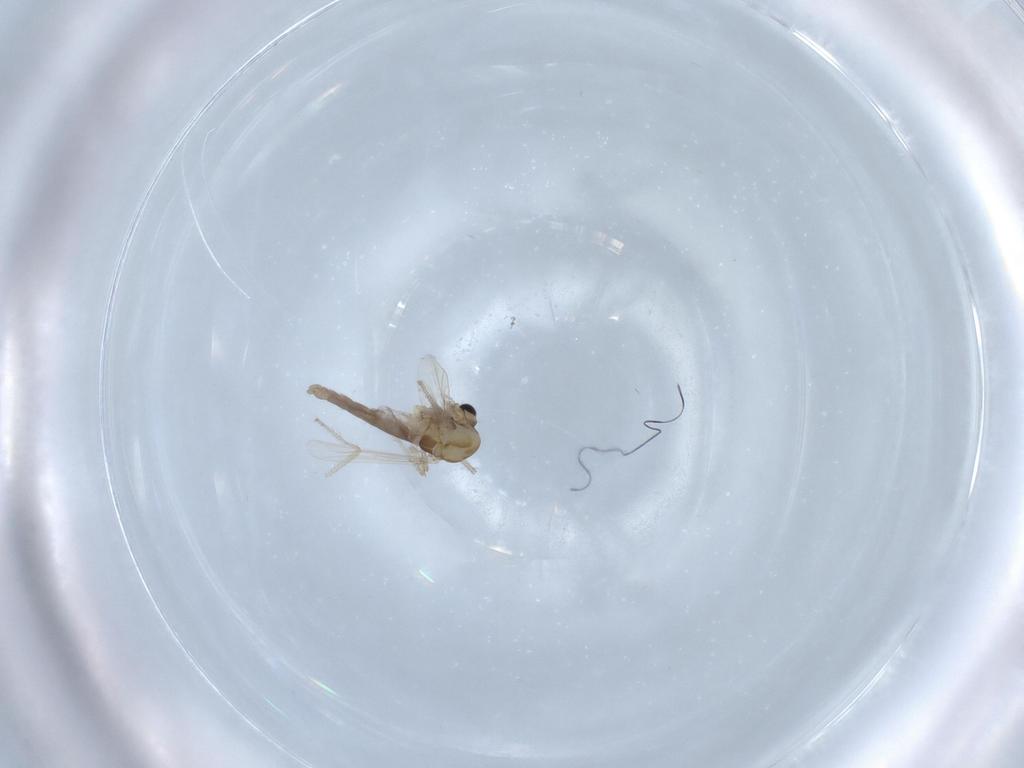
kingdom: Animalia
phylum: Arthropoda
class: Insecta
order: Diptera
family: Chironomidae
